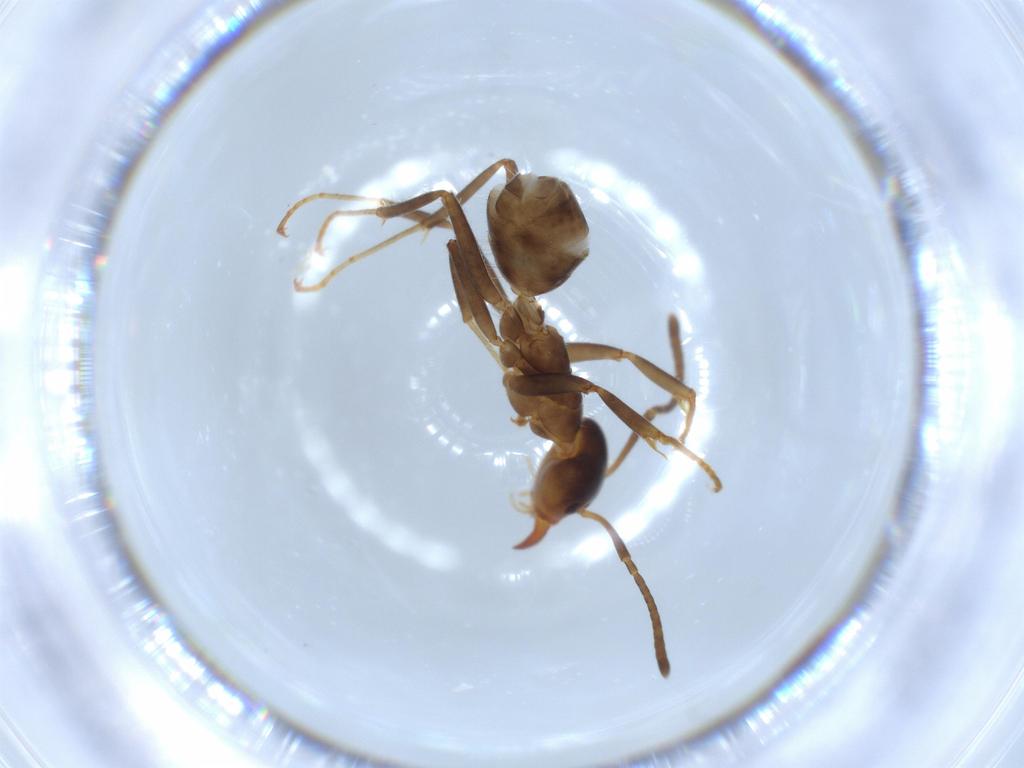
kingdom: Animalia
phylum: Arthropoda
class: Insecta
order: Hymenoptera
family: Formicidae
